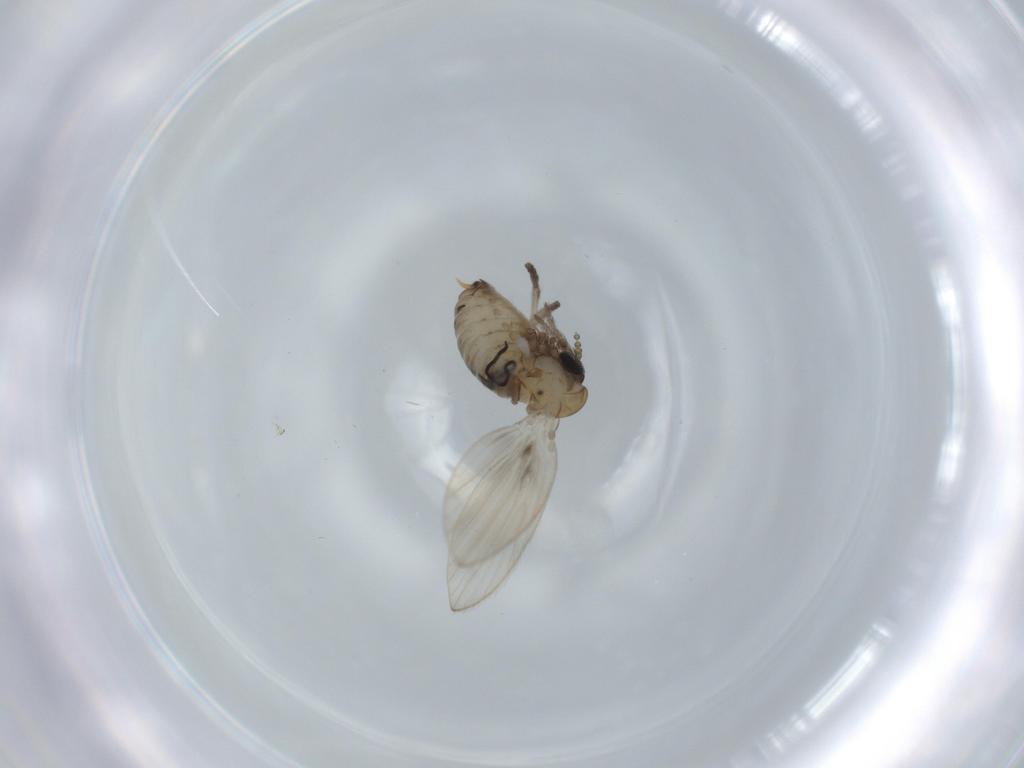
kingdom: Animalia
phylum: Arthropoda
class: Insecta
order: Diptera
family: Psychodidae
